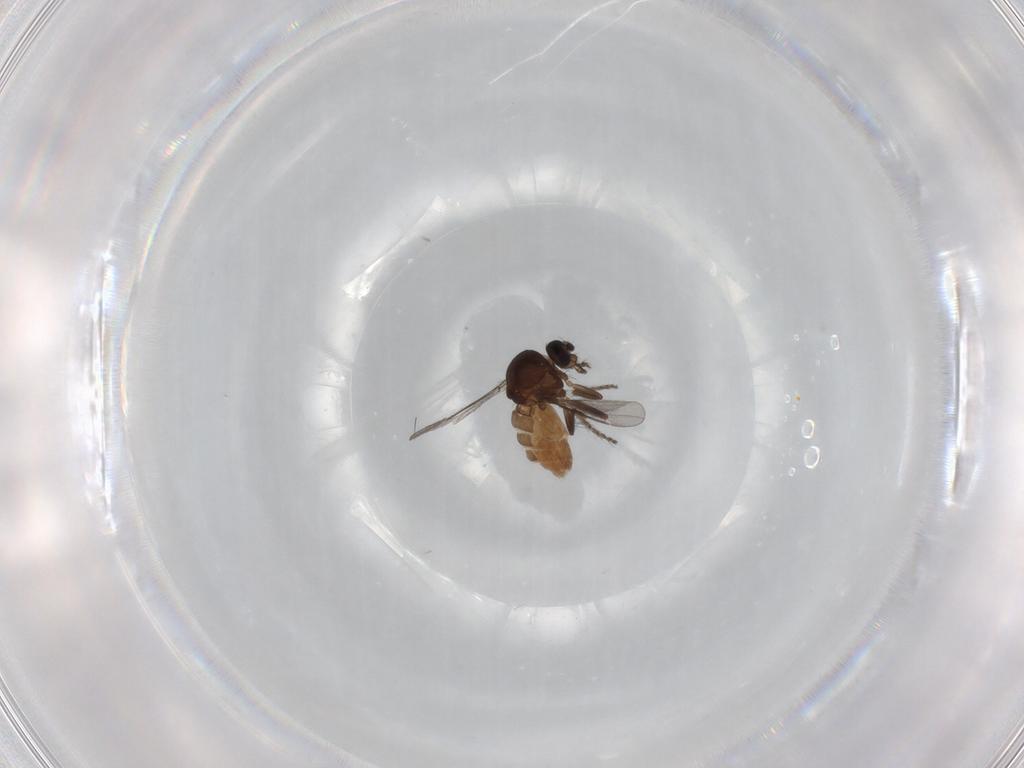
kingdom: Animalia
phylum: Arthropoda
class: Insecta
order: Diptera
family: Ceratopogonidae
